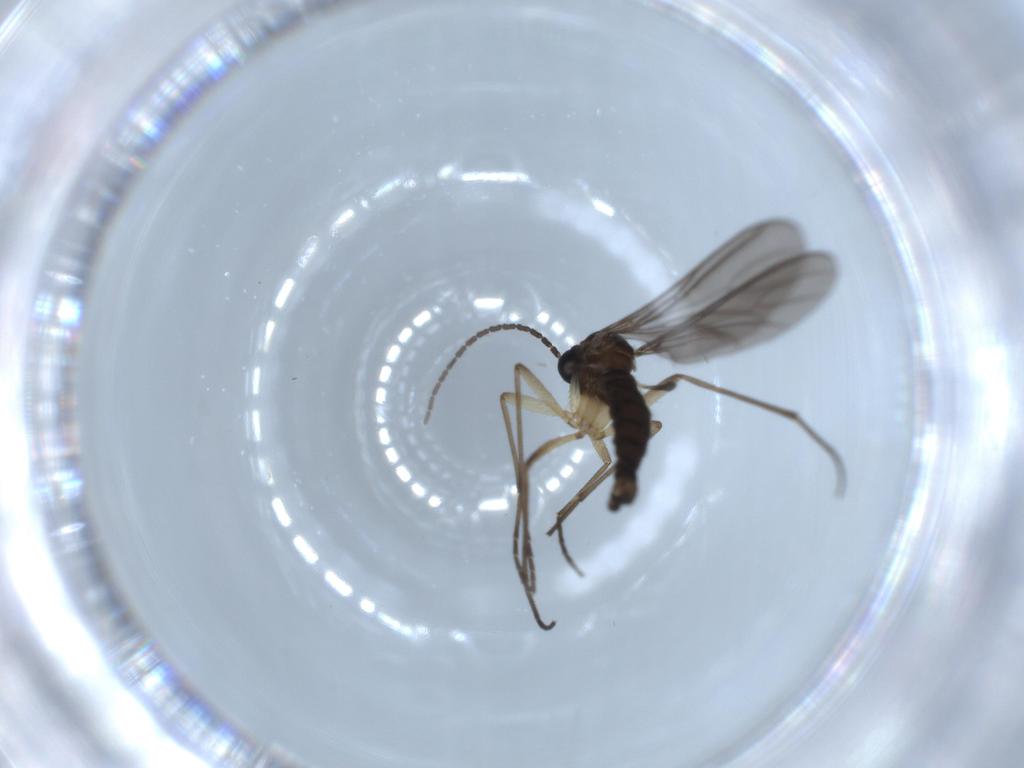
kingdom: Animalia
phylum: Arthropoda
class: Insecta
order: Diptera
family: Sciaridae
